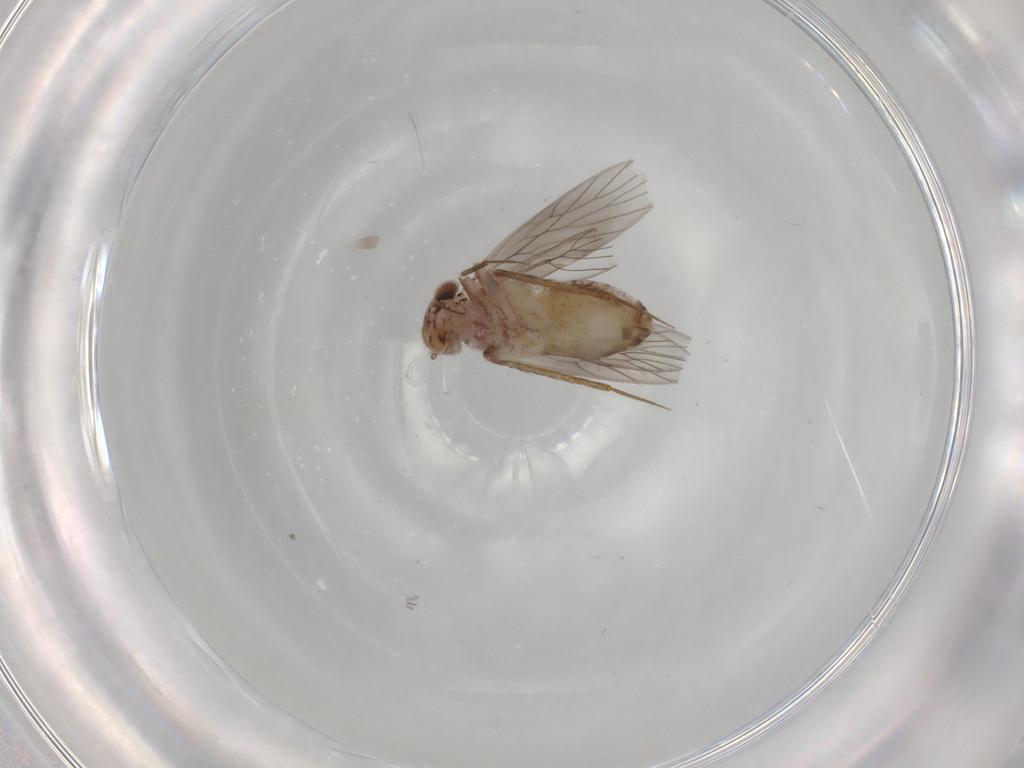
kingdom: Animalia
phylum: Arthropoda
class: Insecta
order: Psocodea
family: Lepidopsocidae
